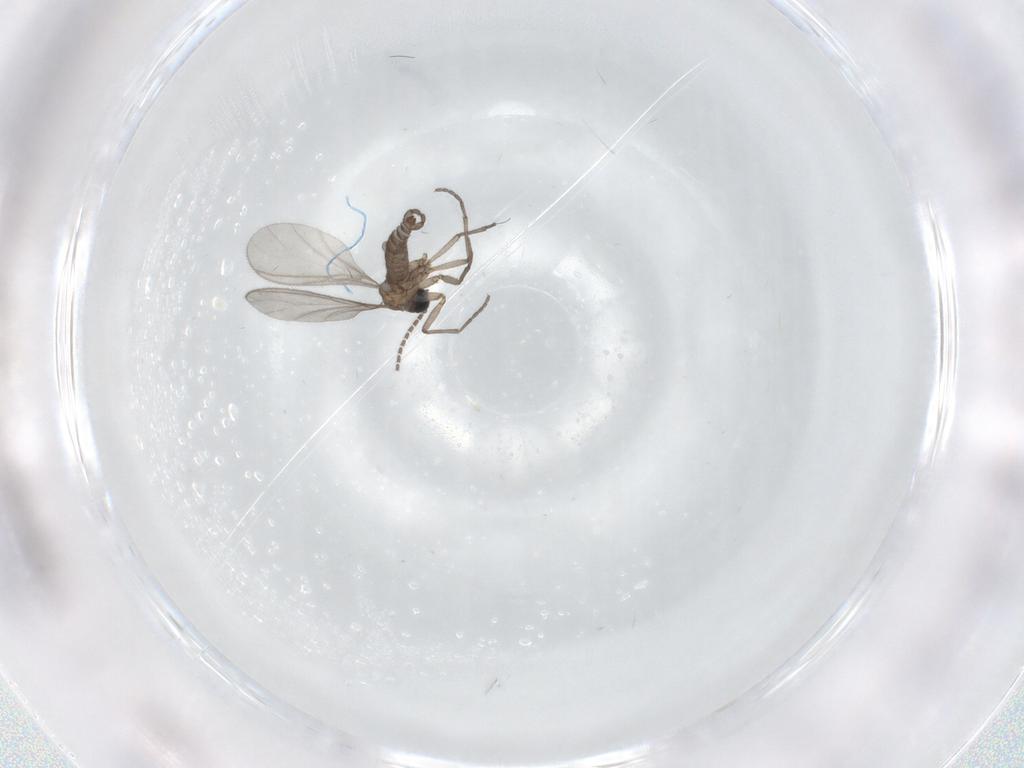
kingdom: Animalia
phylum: Arthropoda
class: Insecta
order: Diptera
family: Sciaridae
